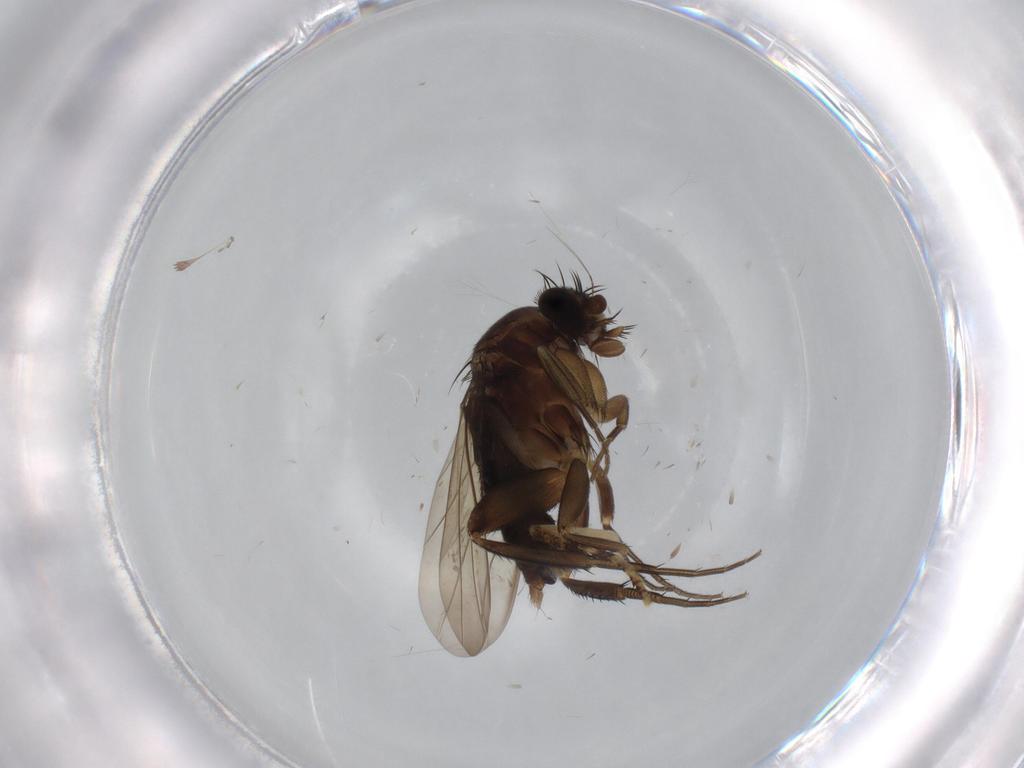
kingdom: Animalia
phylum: Arthropoda
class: Insecta
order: Diptera
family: Phoridae
